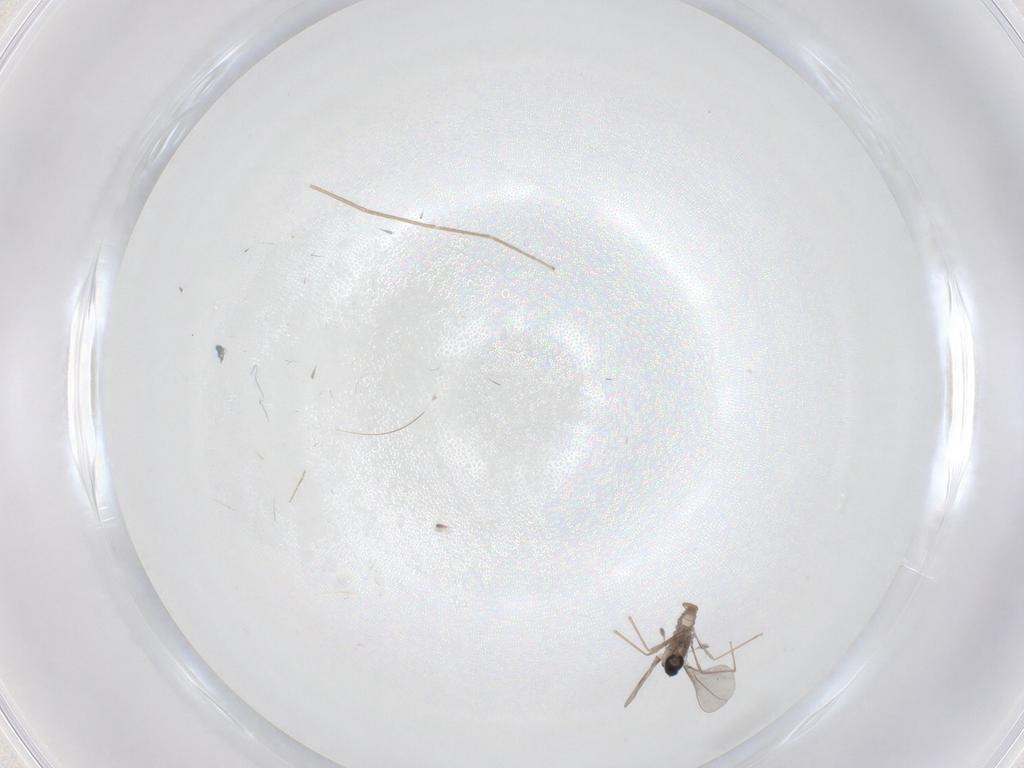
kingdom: Animalia
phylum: Arthropoda
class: Insecta
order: Diptera
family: Cecidomyiidae
